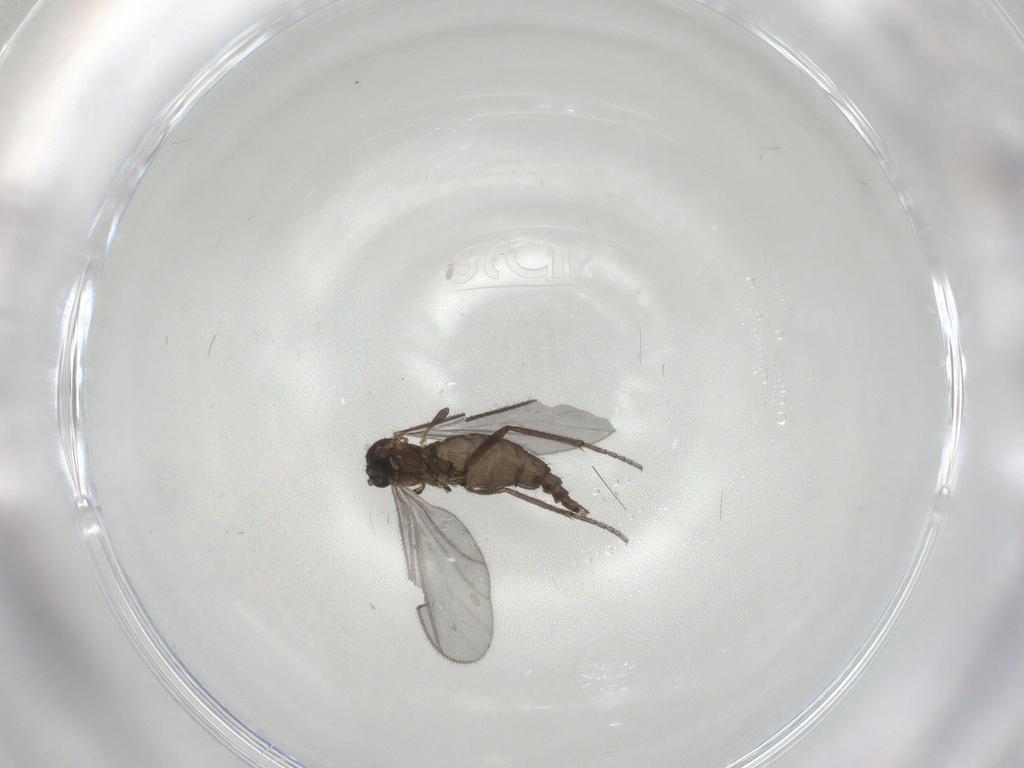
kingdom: Animalia
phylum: Arthropoda
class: Insecta
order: Diptera
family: Sciaridae
